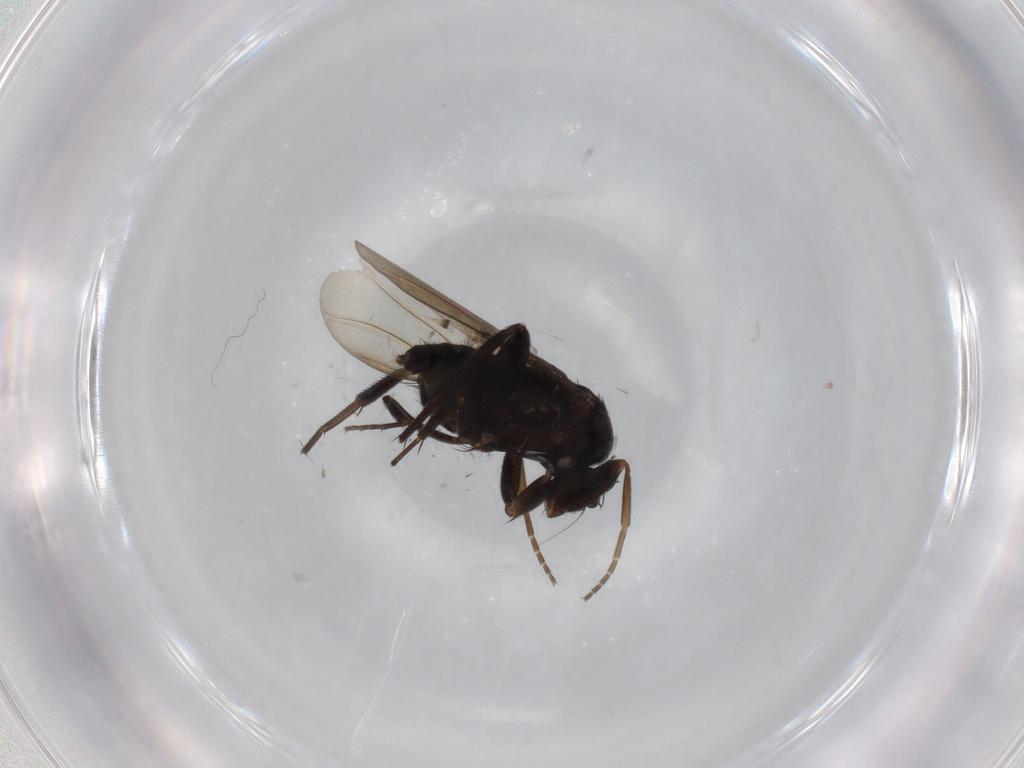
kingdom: Animalia
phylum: Arthropoda
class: Insecta
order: Diptera
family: Phoridae
